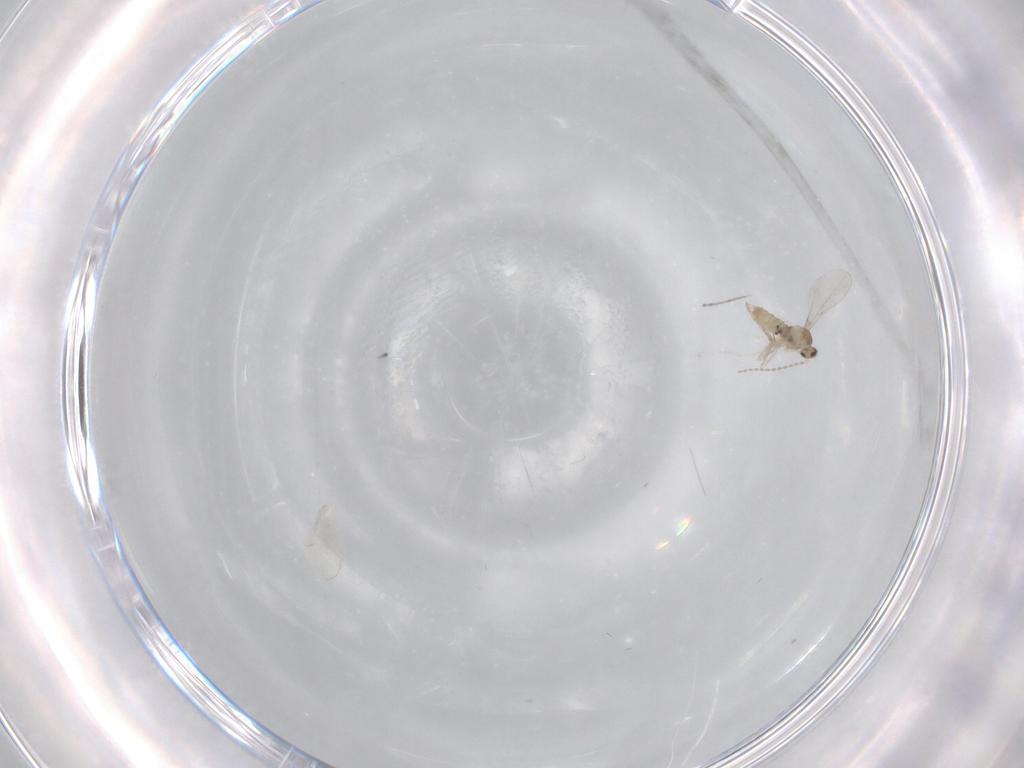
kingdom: Animalia
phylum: Arthropoda
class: Insecta
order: Diptera
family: Cecidomyiidae
